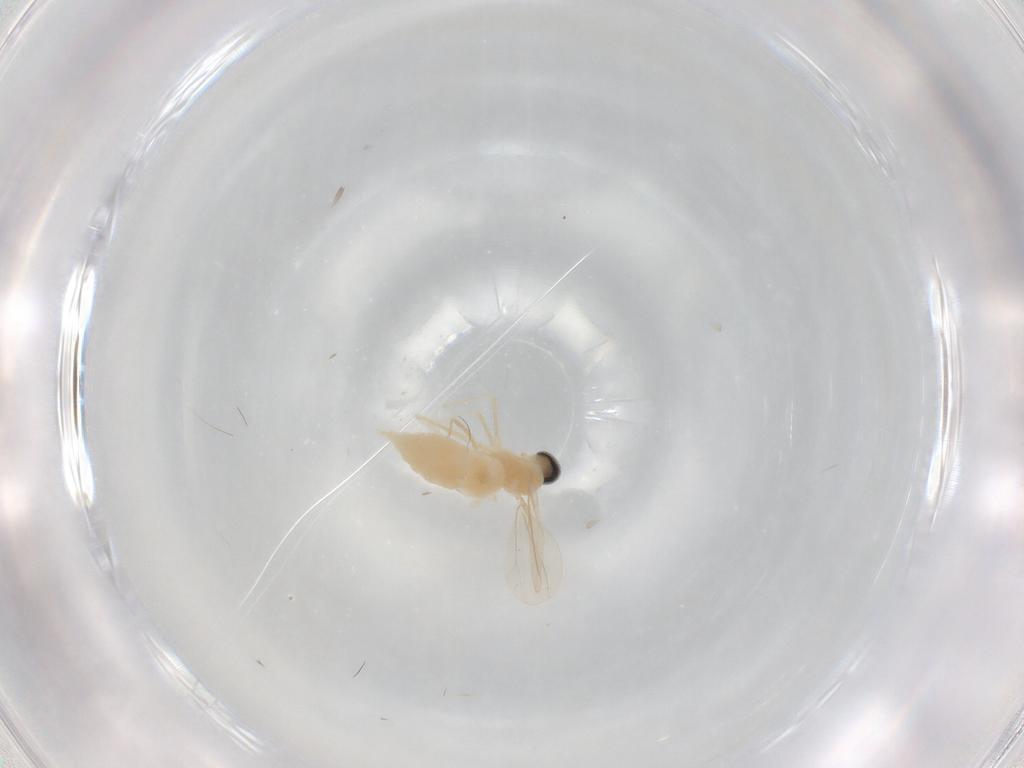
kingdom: Animalia
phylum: Arthropoda
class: Insecta
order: Diptera
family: Cecidomyiidae
